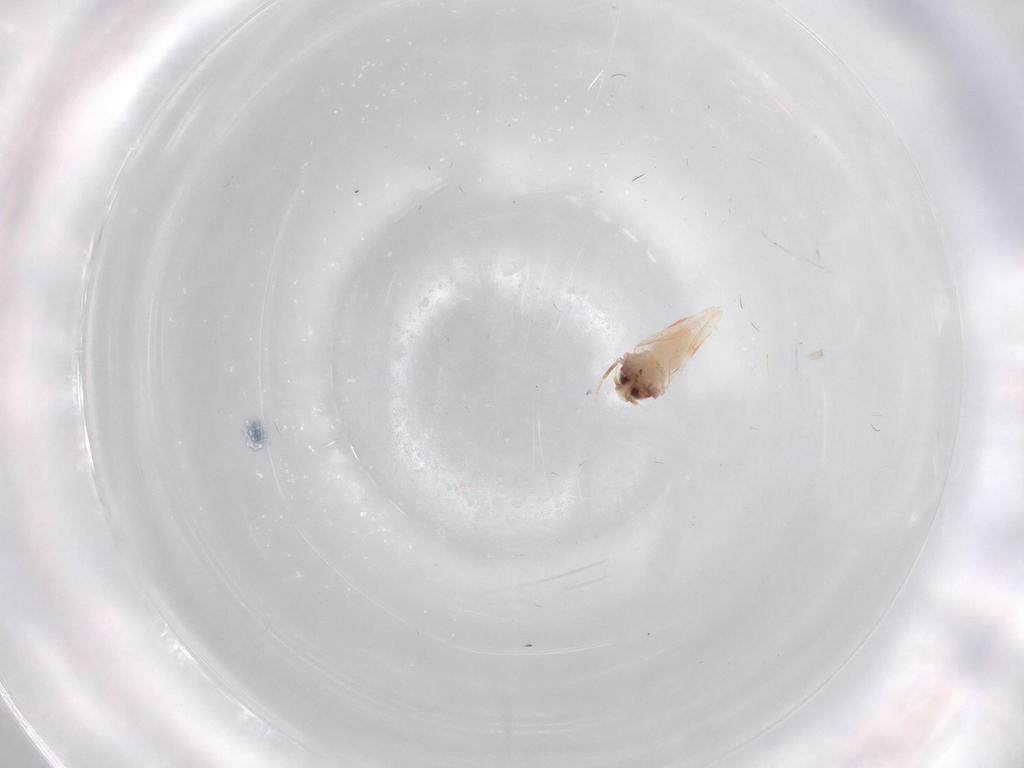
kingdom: Animalia
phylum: Arthropoda
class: Insecta
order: Hemiptera
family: Aleyrodidae
